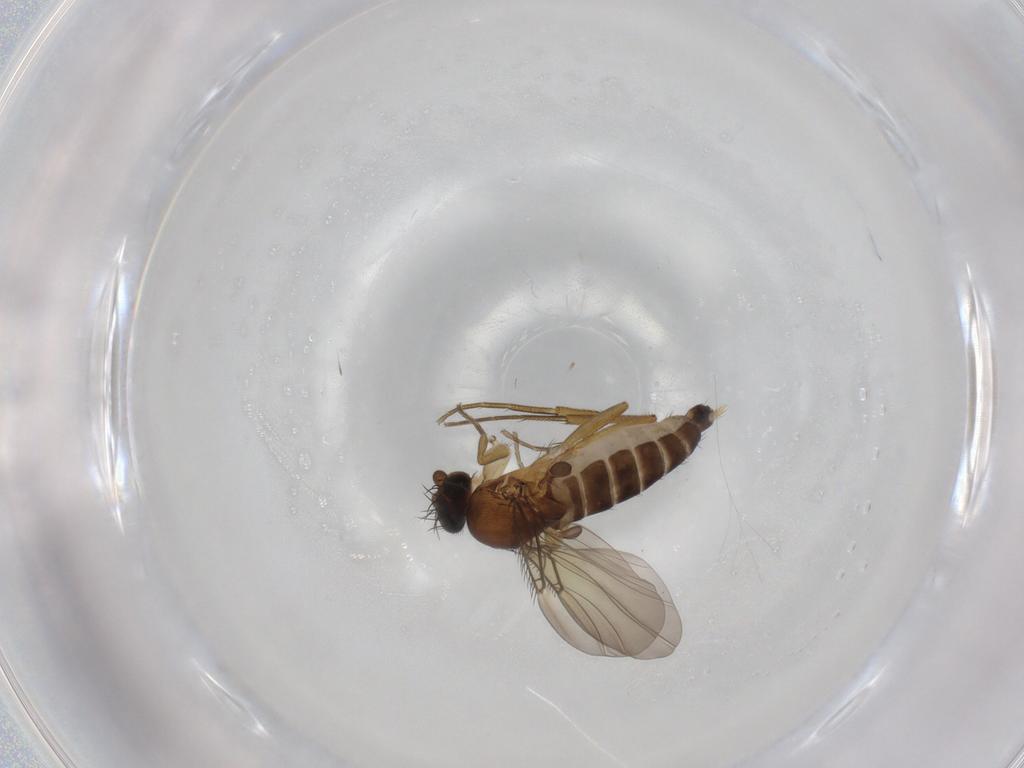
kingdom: Animalia
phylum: Arthropoda
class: Insecta
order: Diptera
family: Phoridae
